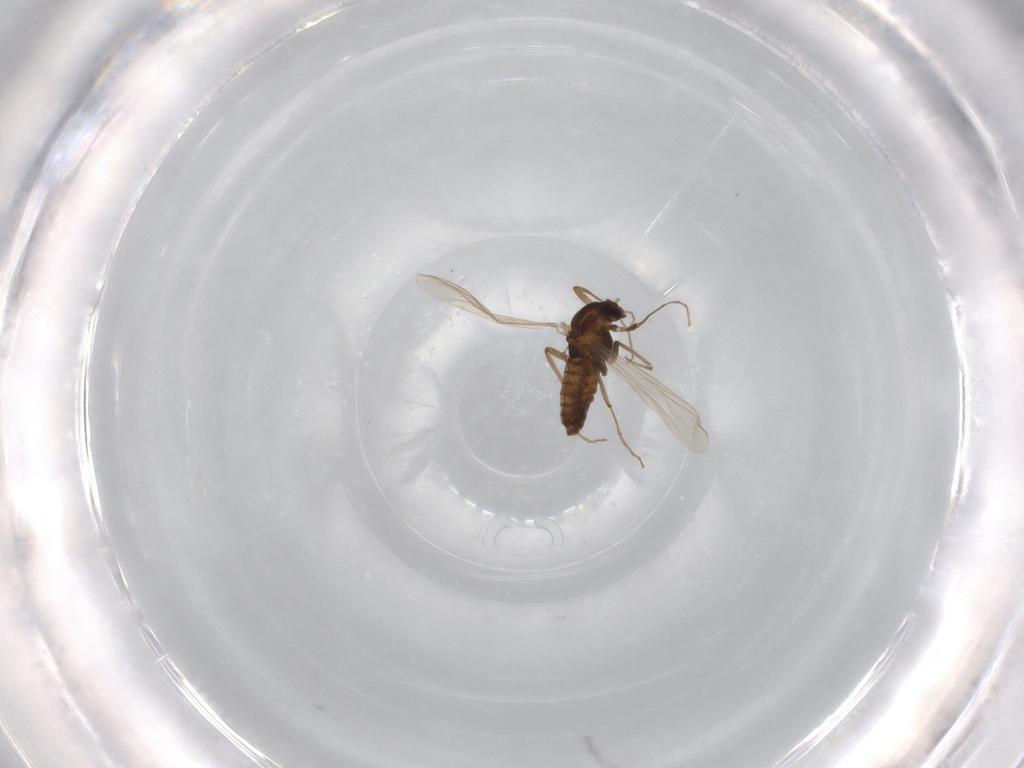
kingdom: Animalia
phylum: Arthropoda
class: Insecta
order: Diptera
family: Chironomidae
